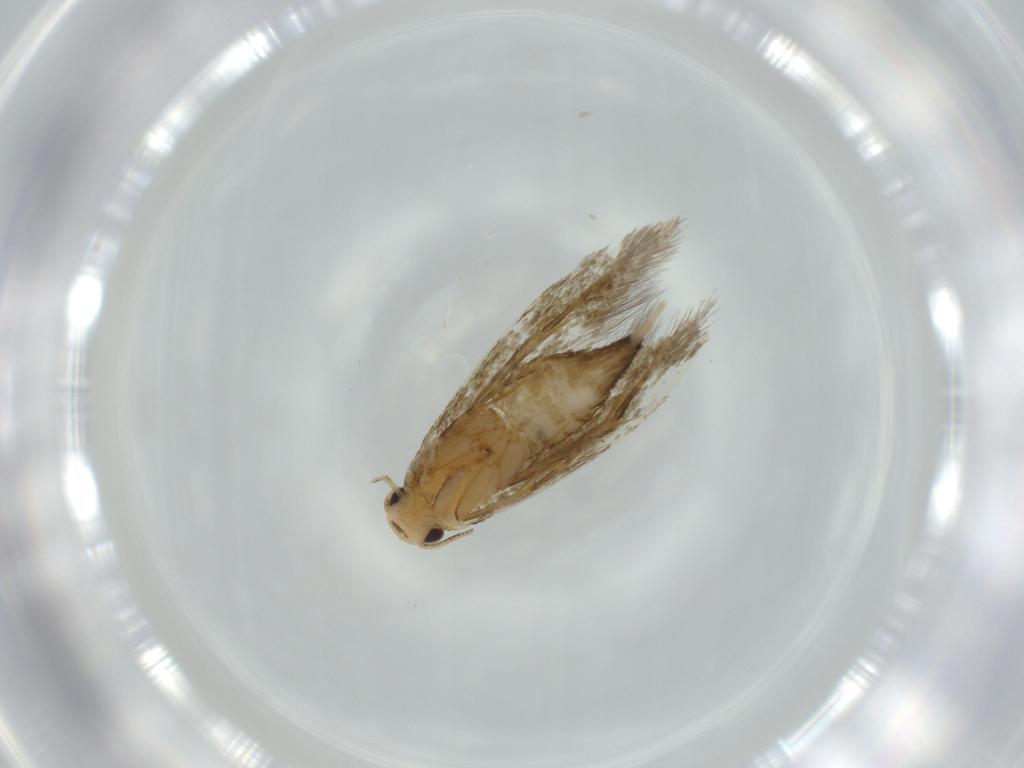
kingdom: Animalia
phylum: Arthropoda
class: Insecta
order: Lepidoptera
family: Tineidae
